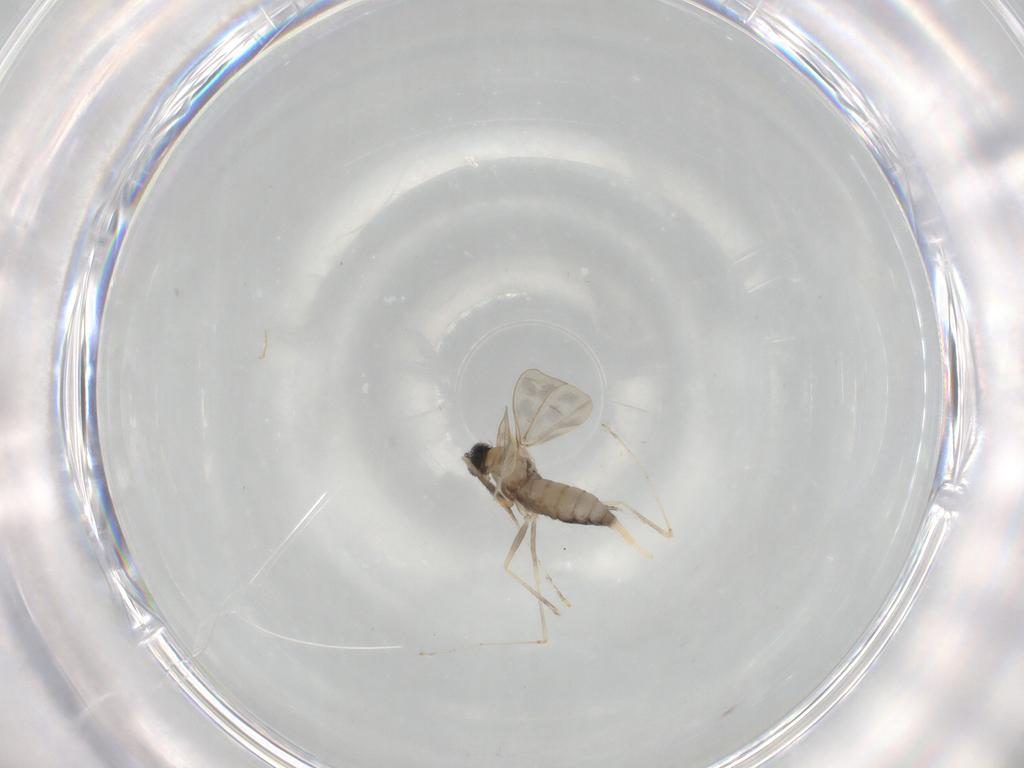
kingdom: Animalia
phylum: Arthropoda
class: Insecta
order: Diptera
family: Cecidomyiidae
